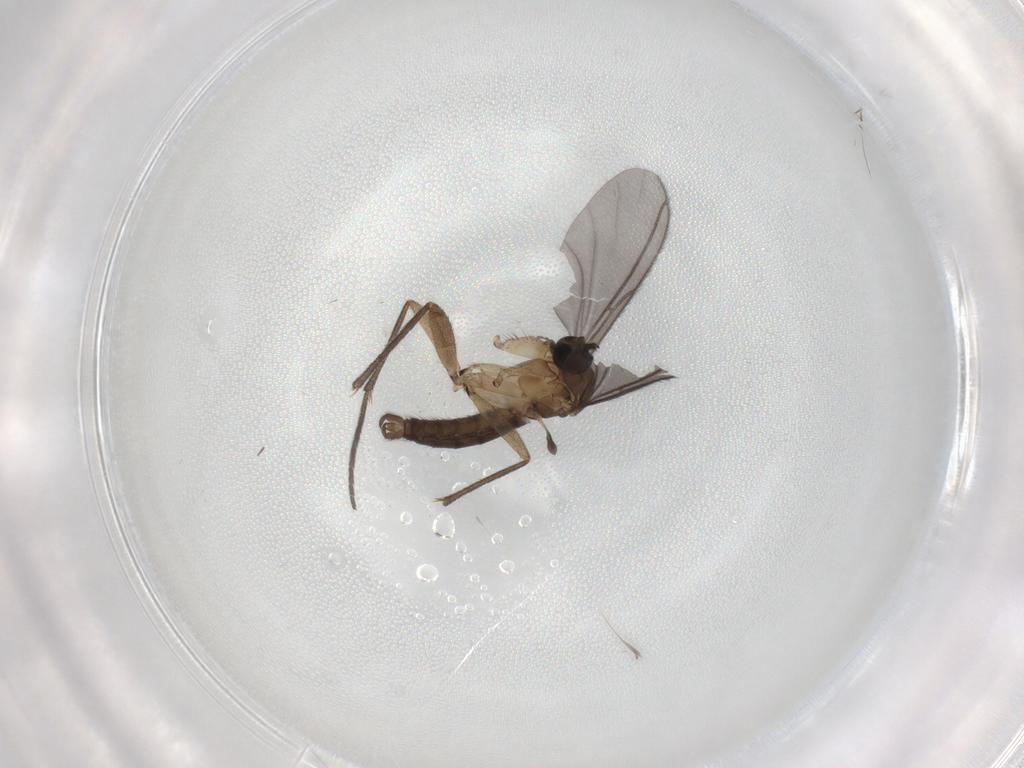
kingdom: Animalia
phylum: Arthropoda
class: Insecta
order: Diptera
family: Sciaridae
